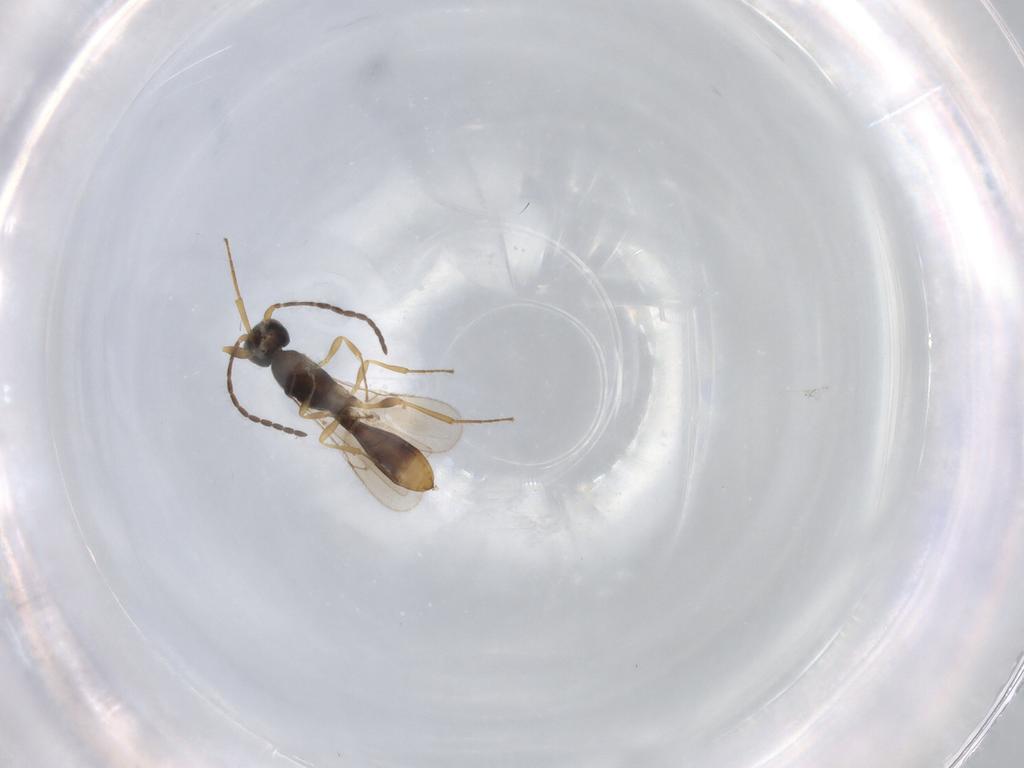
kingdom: Animalia
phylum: Arthropoda
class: Insecta
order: Hymenoptera
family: Scelionidae
